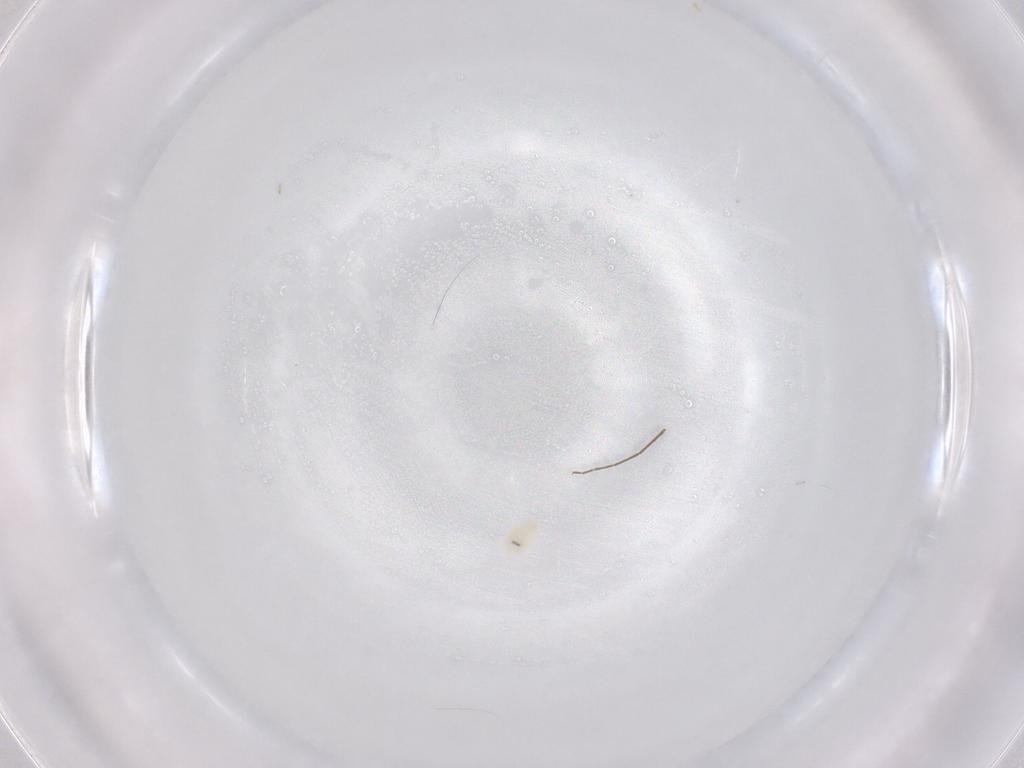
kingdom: Animalia
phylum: Arthropoda
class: Arachnida
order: Trombidiformes
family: Eupodidae
